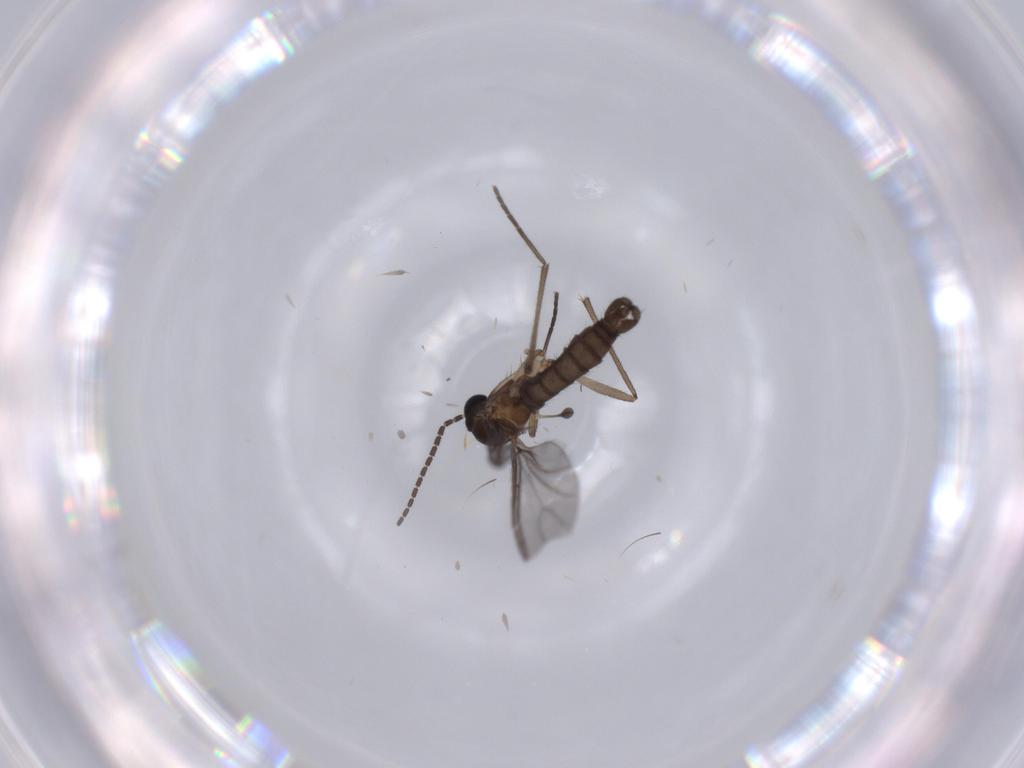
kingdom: Animalia
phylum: Arthropoda
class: Insecta
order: Diptera
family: Sciaridae
